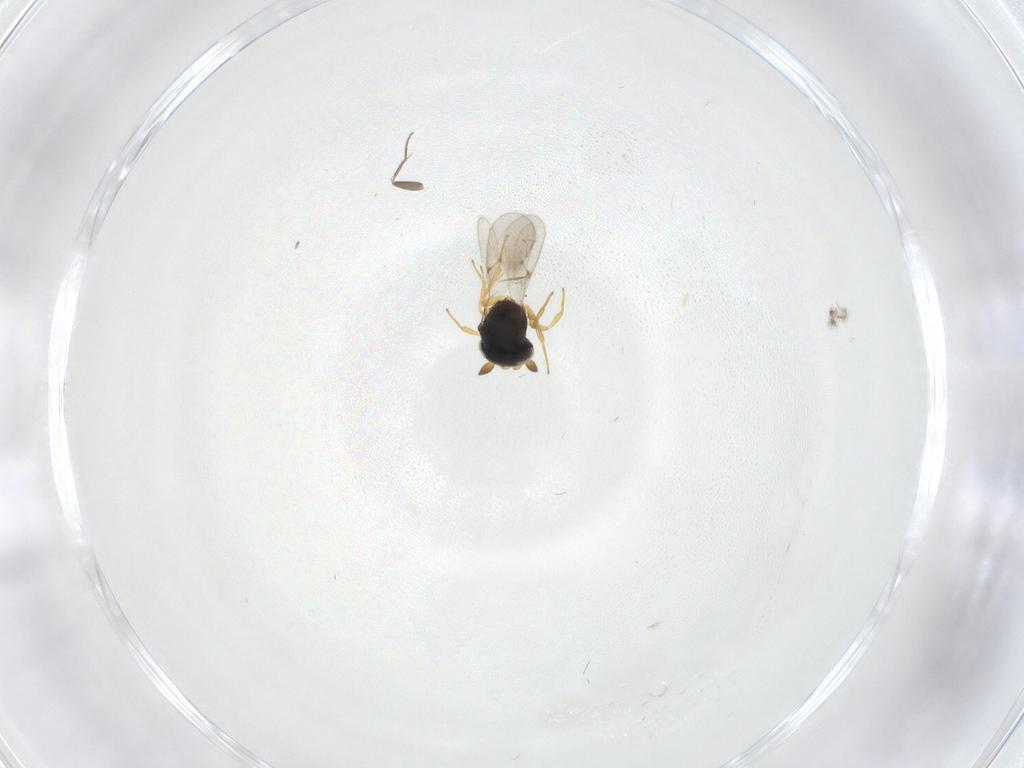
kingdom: Animalia
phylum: Arthropoda
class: Insecta
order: Hymenoptera
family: Scelionidae
